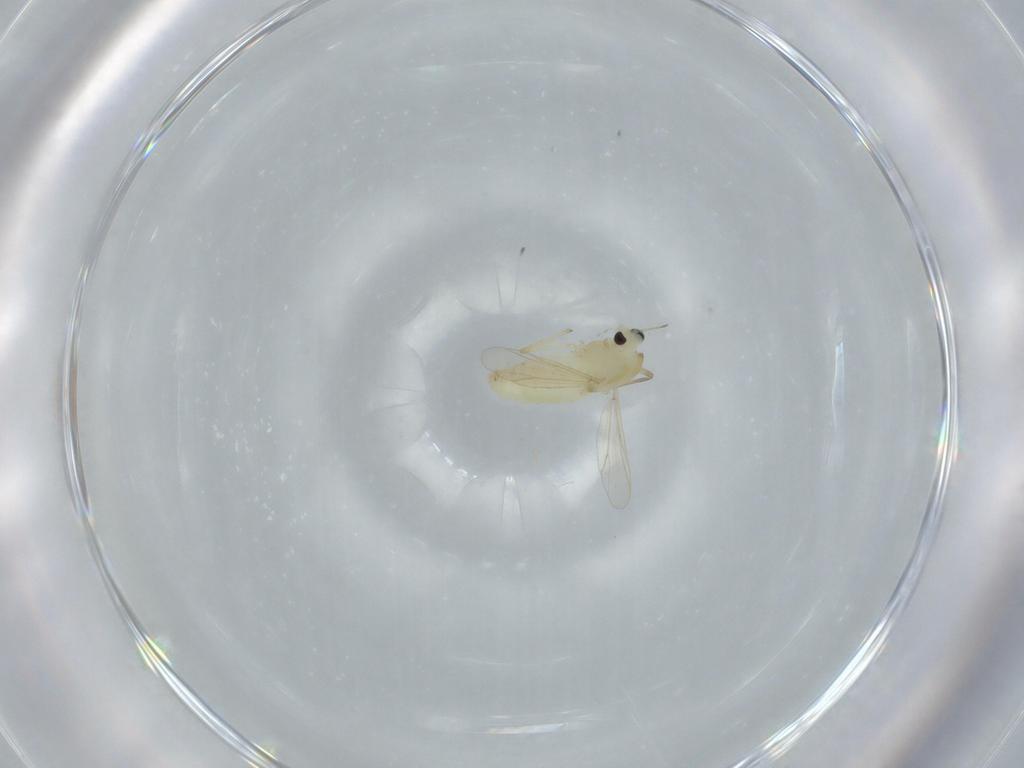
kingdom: Animalia
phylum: Arthropoda
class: Insecta
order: Diptera
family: Chironomidae
